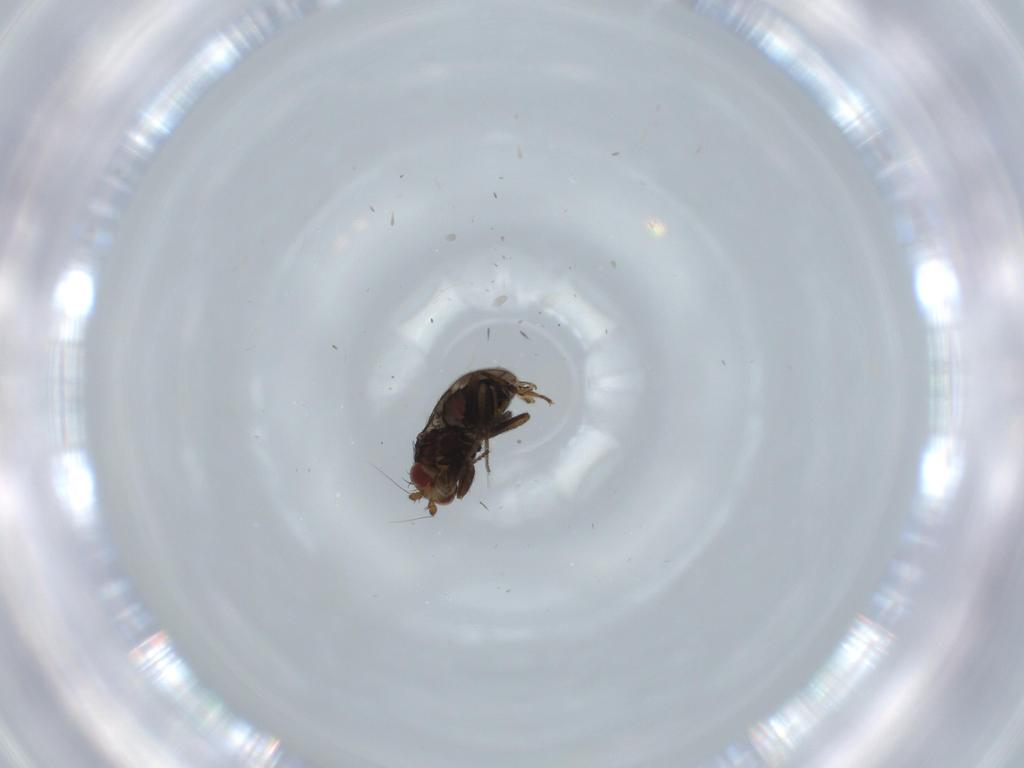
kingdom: Animalia
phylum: Arthropoda
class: Insecta
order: Diptera
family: Sphaeroceridae
